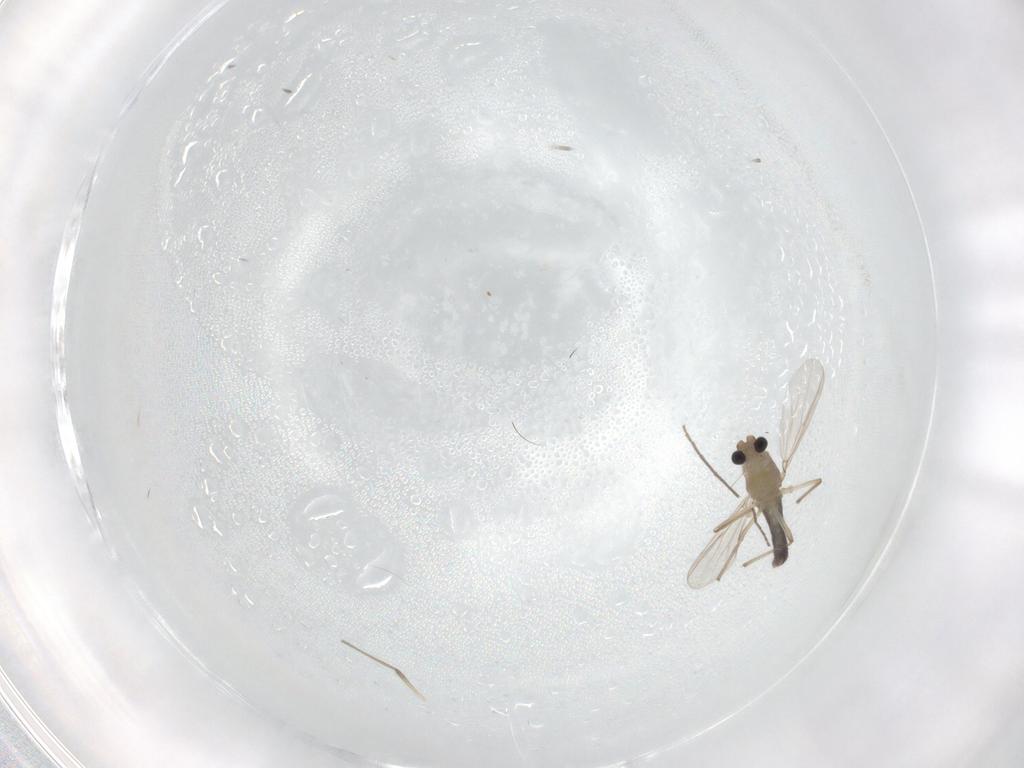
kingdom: Animalia
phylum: Arthropoda
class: Insecta
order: Diptera
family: Chironomidae
